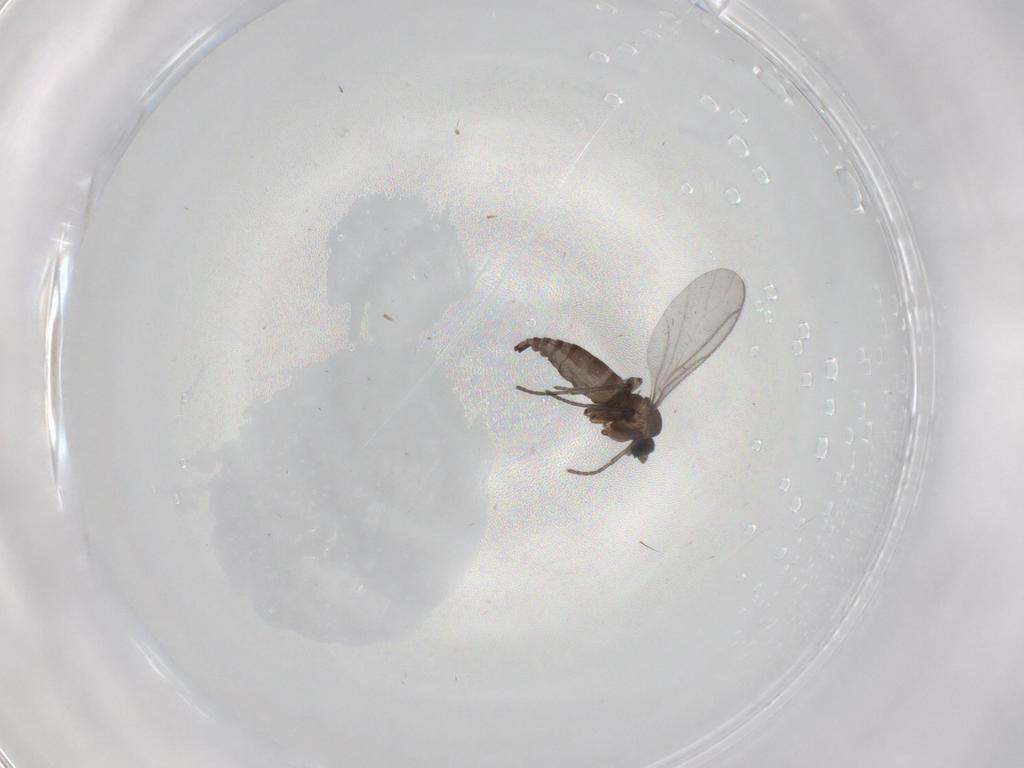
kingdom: Animalia
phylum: Arthropoda
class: Insecta
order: Diptera
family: Sciaridae
